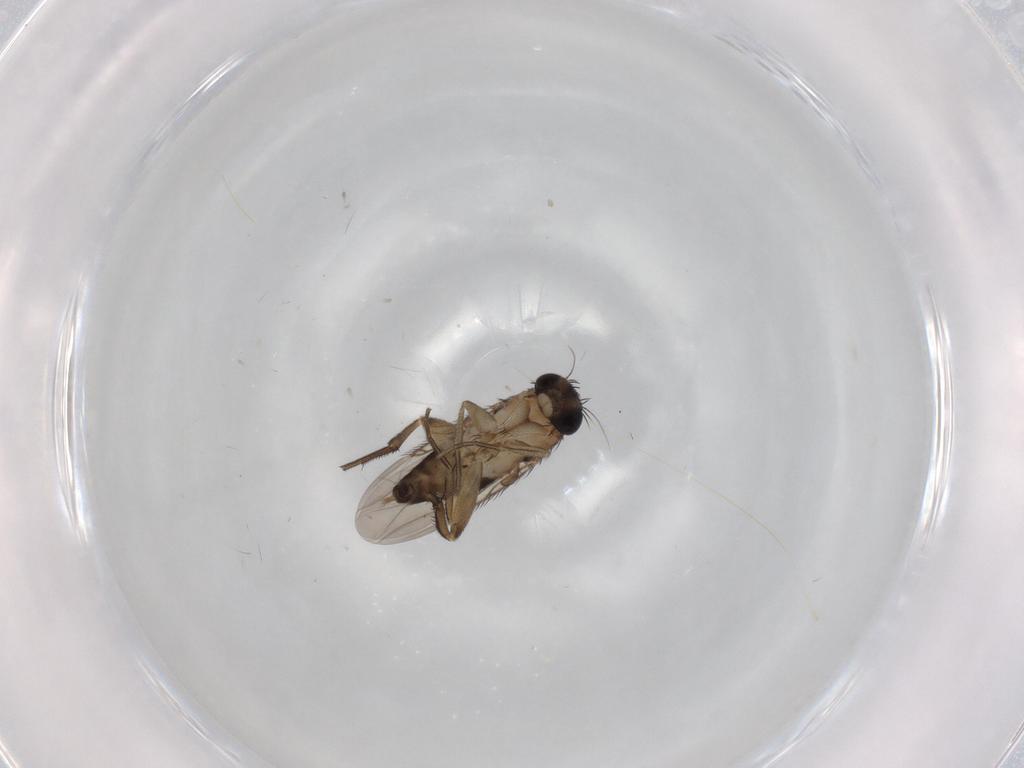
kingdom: Animalia
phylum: Arthropoda
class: Insecta
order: Diptera
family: Phoridae
